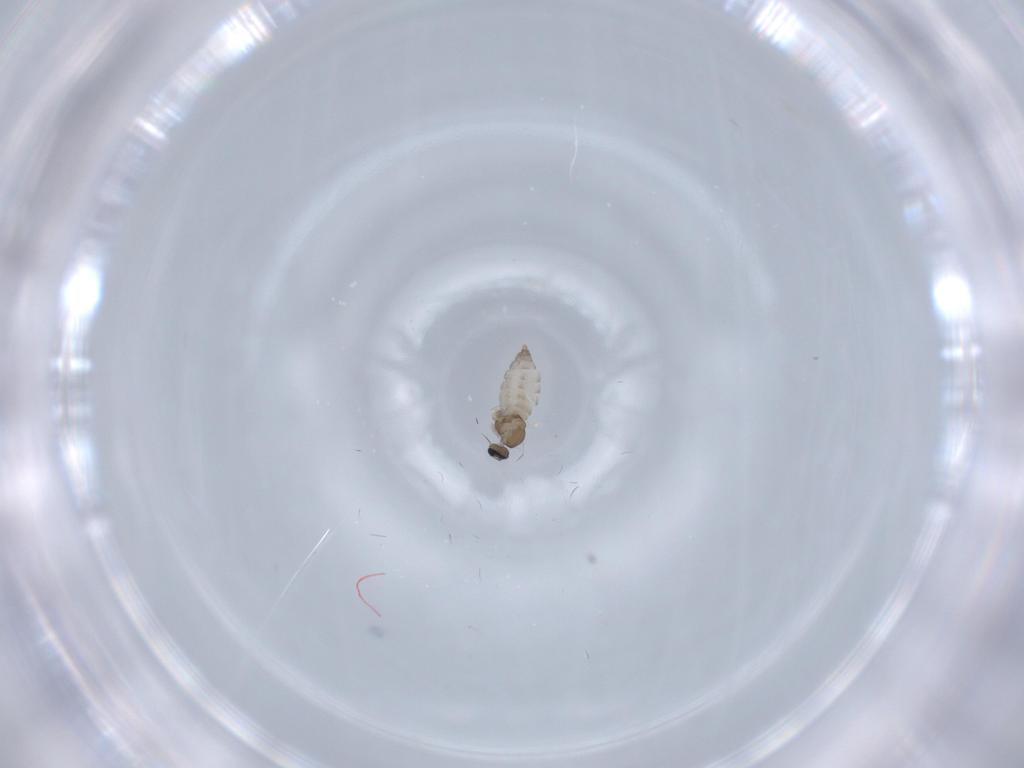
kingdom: Animalia
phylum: Arthropoda
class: Insecta
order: Diptera
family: Cecidomyiidae
